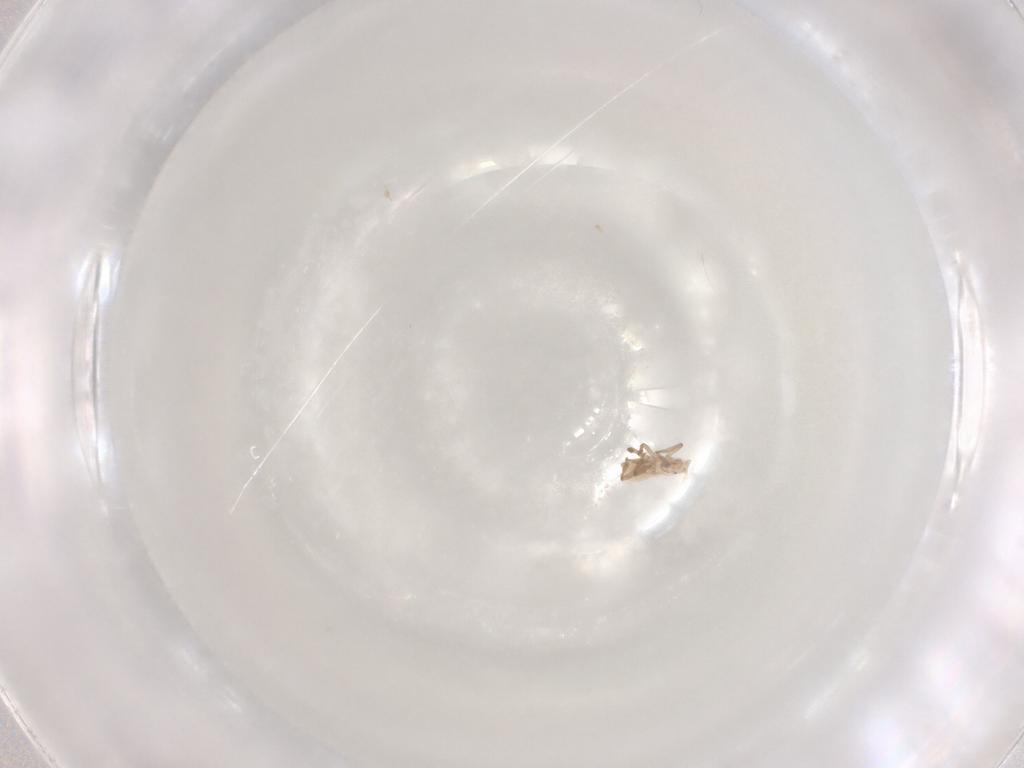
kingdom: Animalia
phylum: Arthropoda
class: Insecta
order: Hemiptera
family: Aphididae
